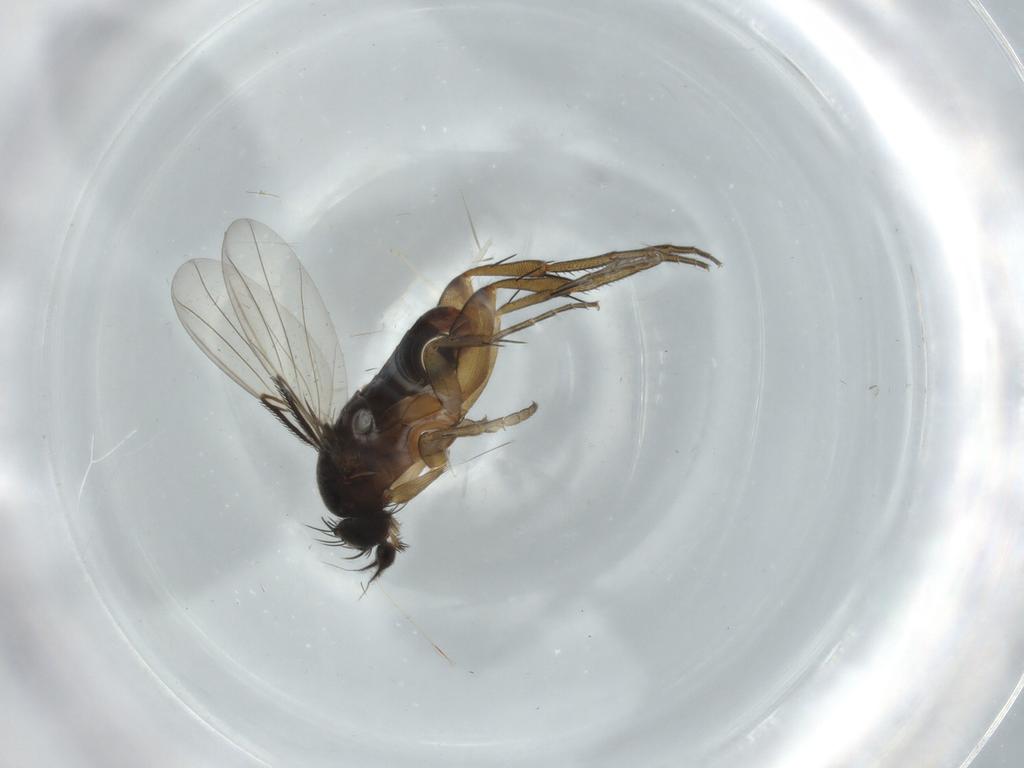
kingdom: Animalia
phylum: Arthropoda
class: Insecta
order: Diptera
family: Phoridae
